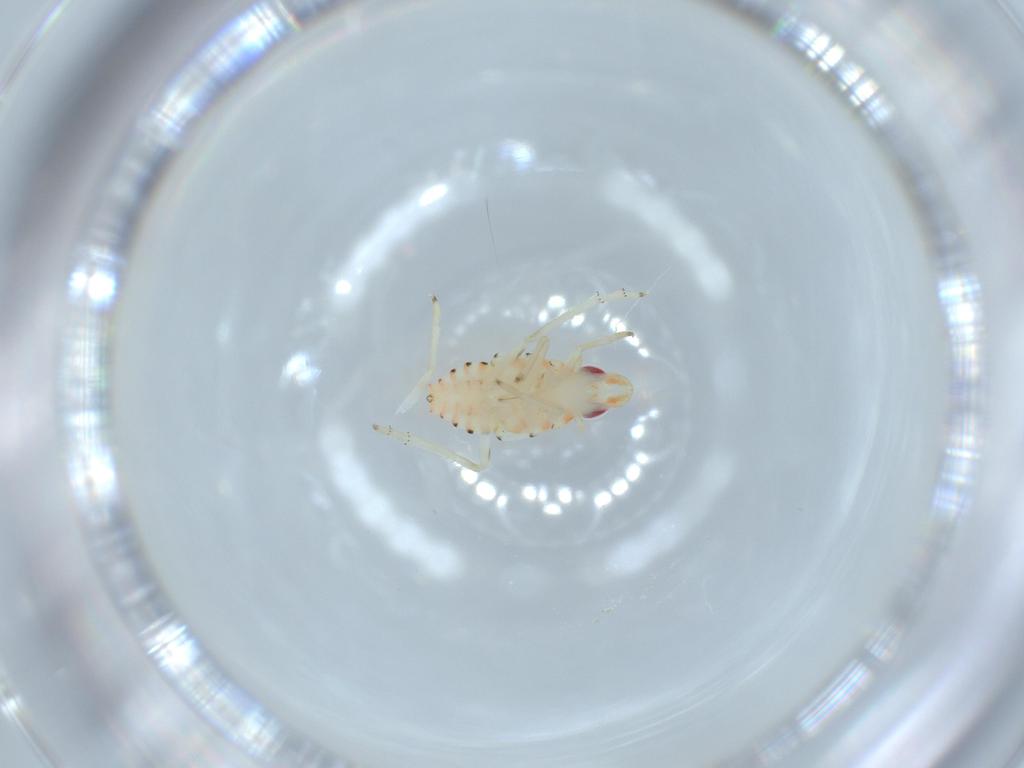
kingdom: Animalia
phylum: Arthropoda
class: Insecta
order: Hemiptera
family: Tropiduchidae
